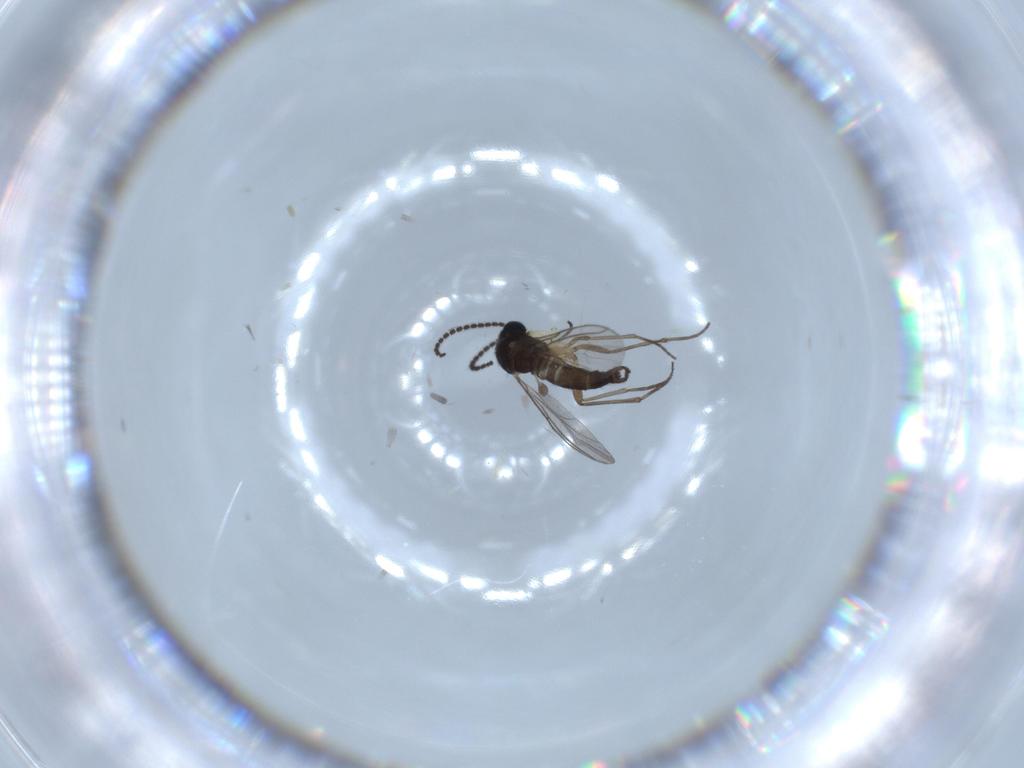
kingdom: Animalia
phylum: Arthropoda
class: Insecta
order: Diptera
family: Sciaridae
